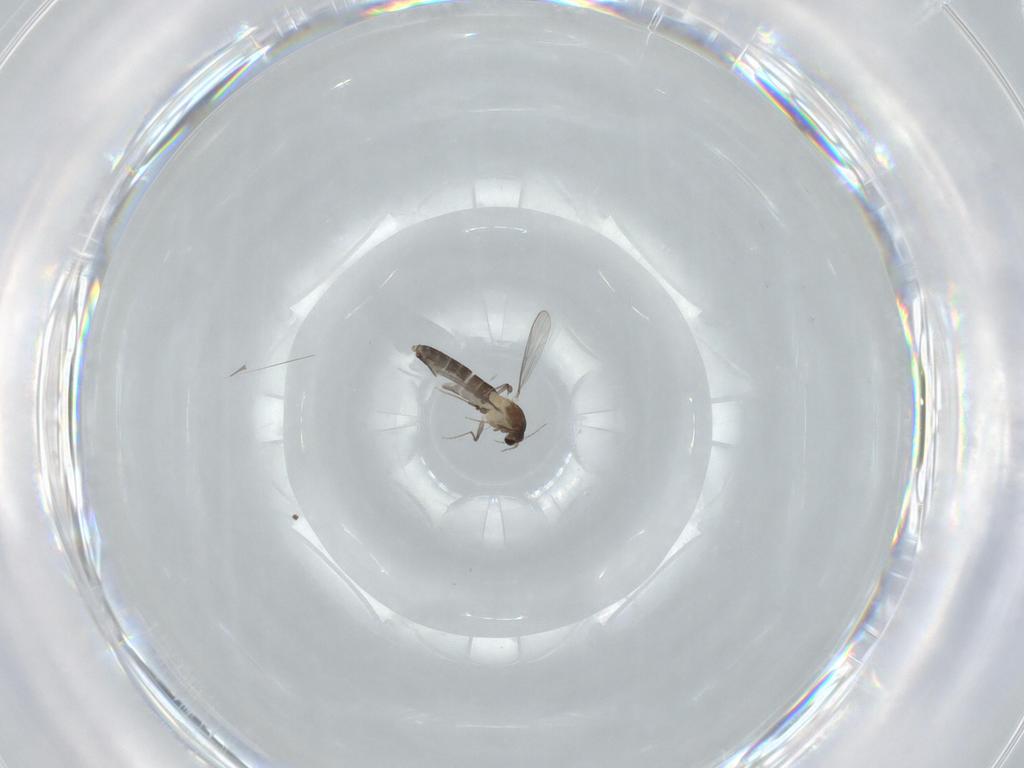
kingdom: Animalia
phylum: Arthropoda
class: Insecta
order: Diptera
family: Chironomidae
